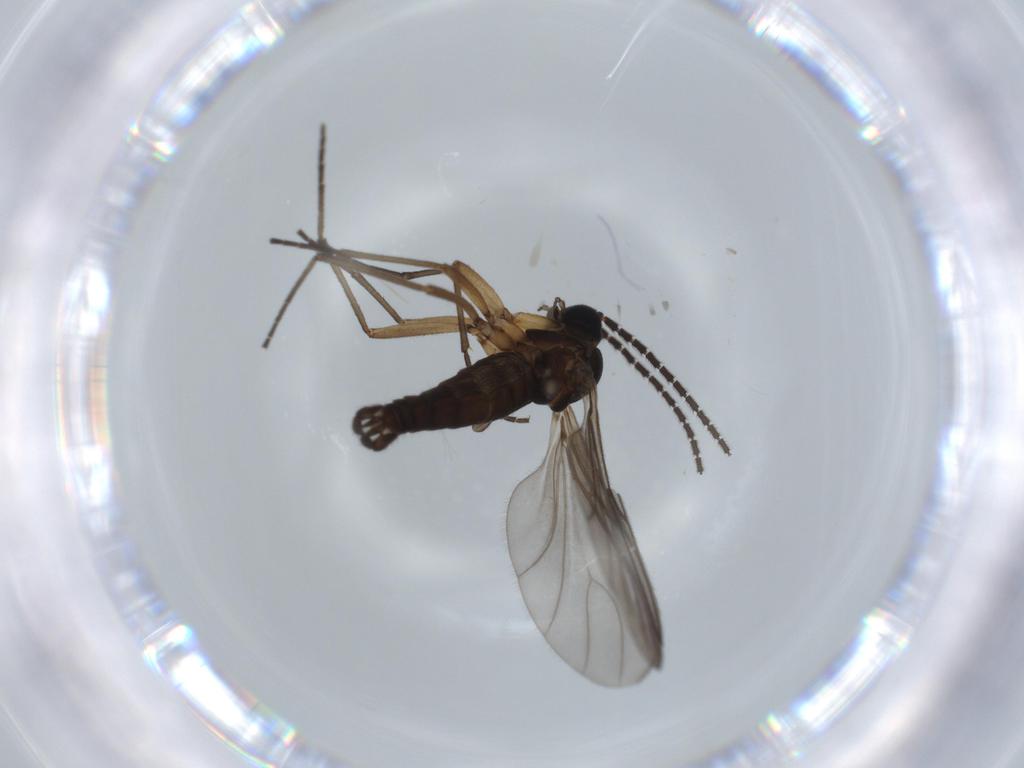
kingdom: Animalia
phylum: Arthropoda
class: Insecta
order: Diptera
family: Sciaridae
